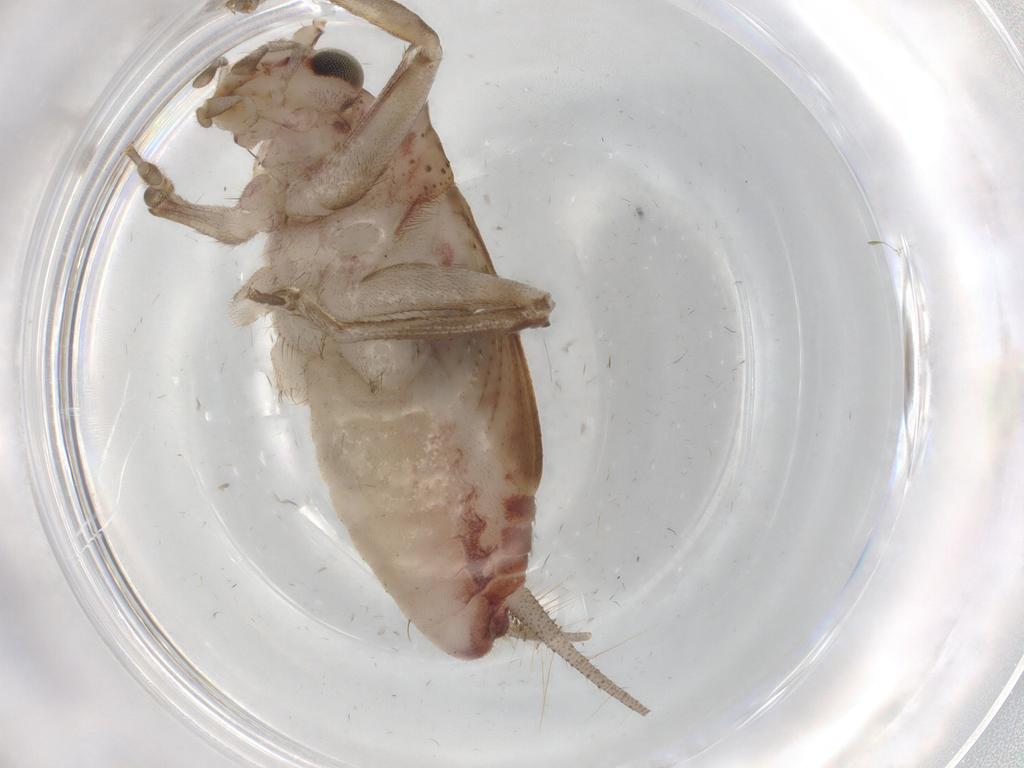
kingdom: Animalia
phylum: Arthropoda
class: Insecta
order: Orthoptera
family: Trigonidiidae
